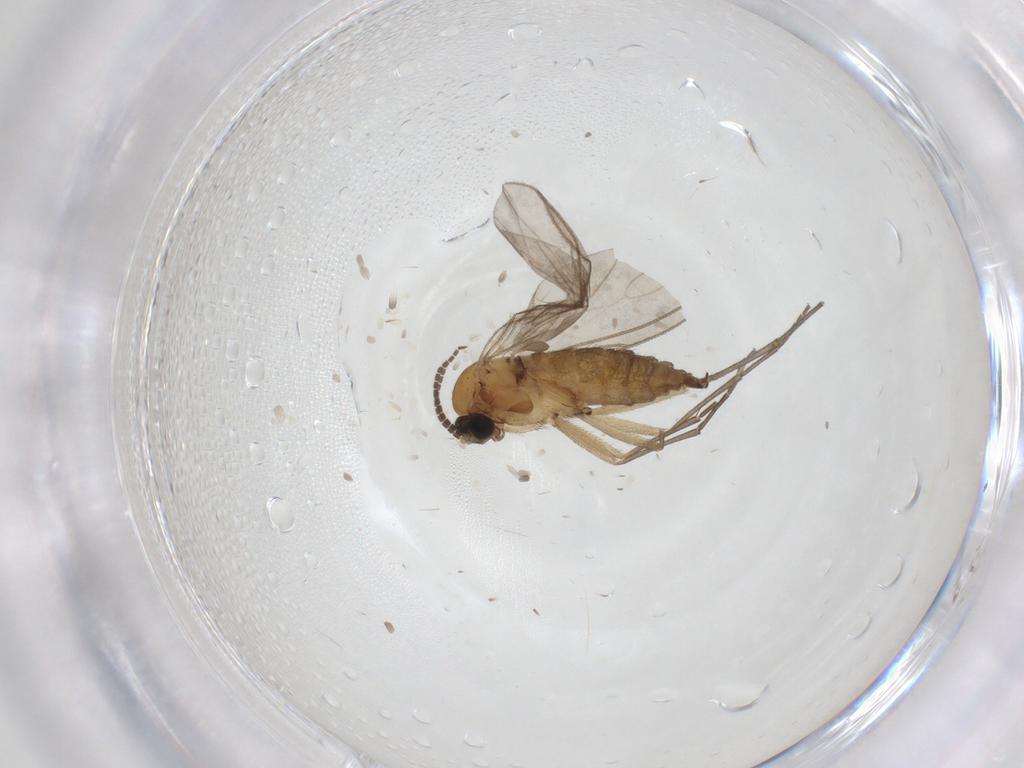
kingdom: Animalia
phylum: Arthropoda
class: Insecta
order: Diptera
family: Sciaridae
